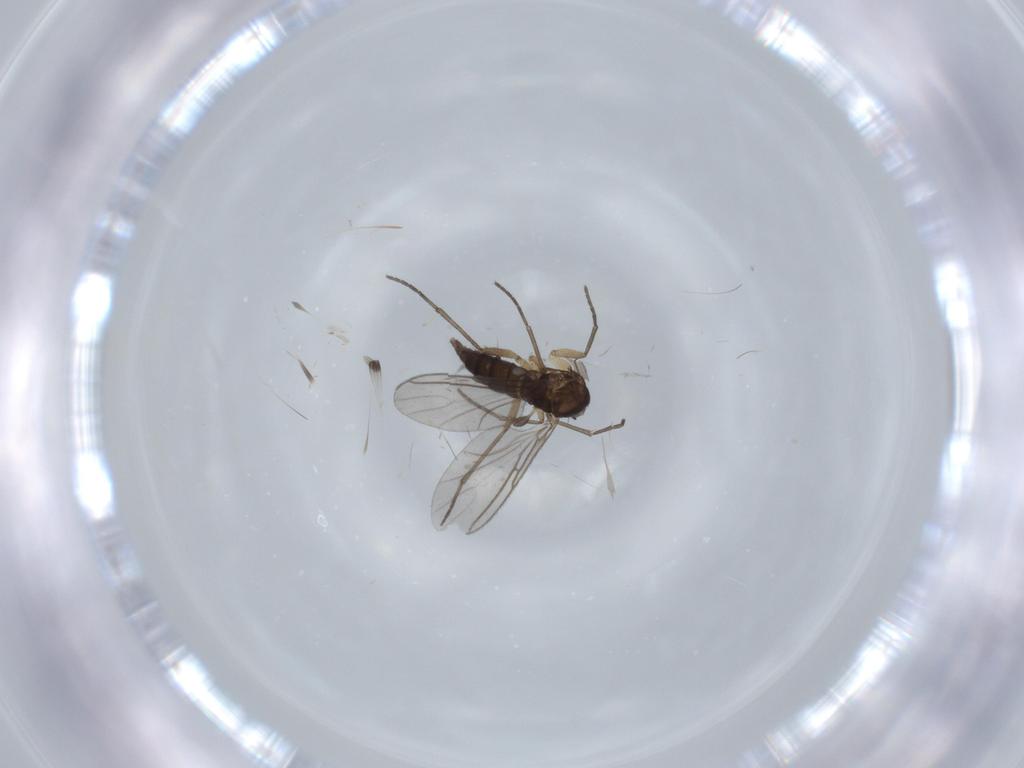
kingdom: Animalia
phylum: Arthropoda
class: Insecta
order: Diptera
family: Sciaridae
